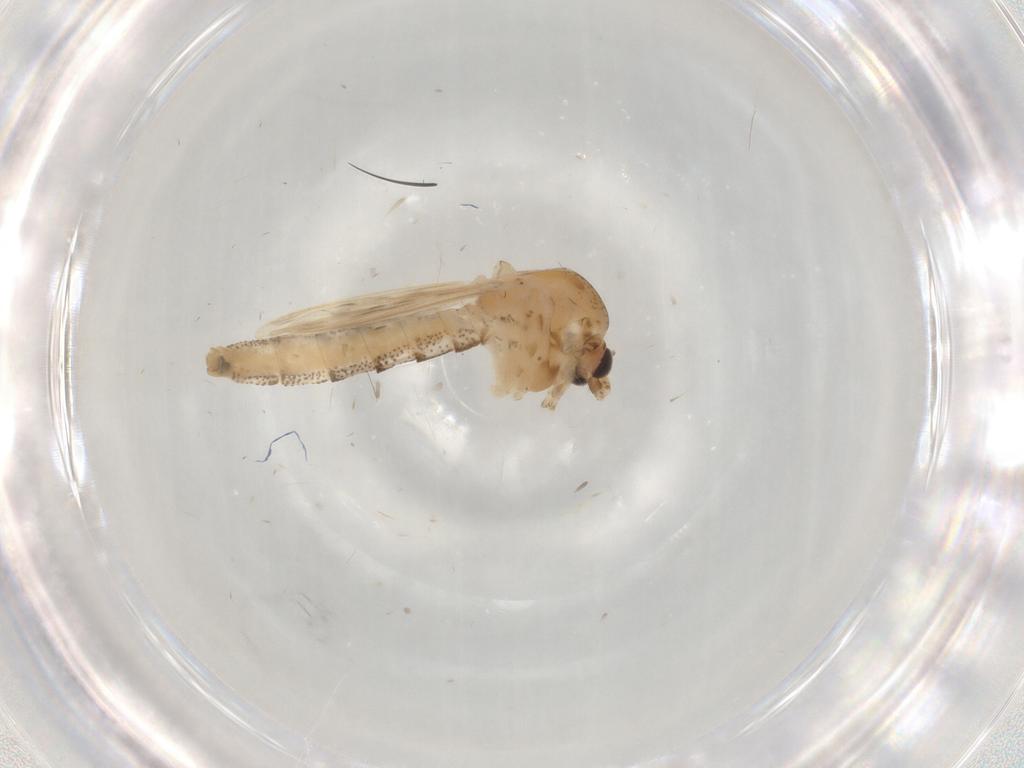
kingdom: Animalia
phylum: Arthropoda
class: Insecta
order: Diptera
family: Chaoboridae
